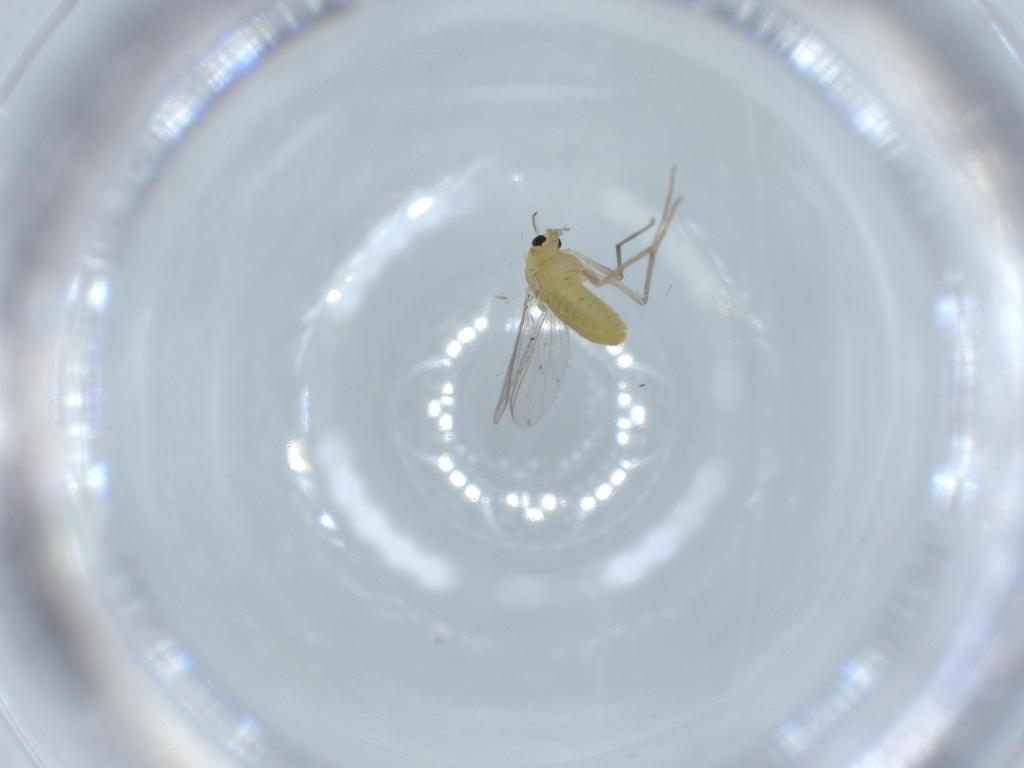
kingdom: Animalia
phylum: Arthropoda
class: Insecta
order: Diptera
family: Chironomidae
